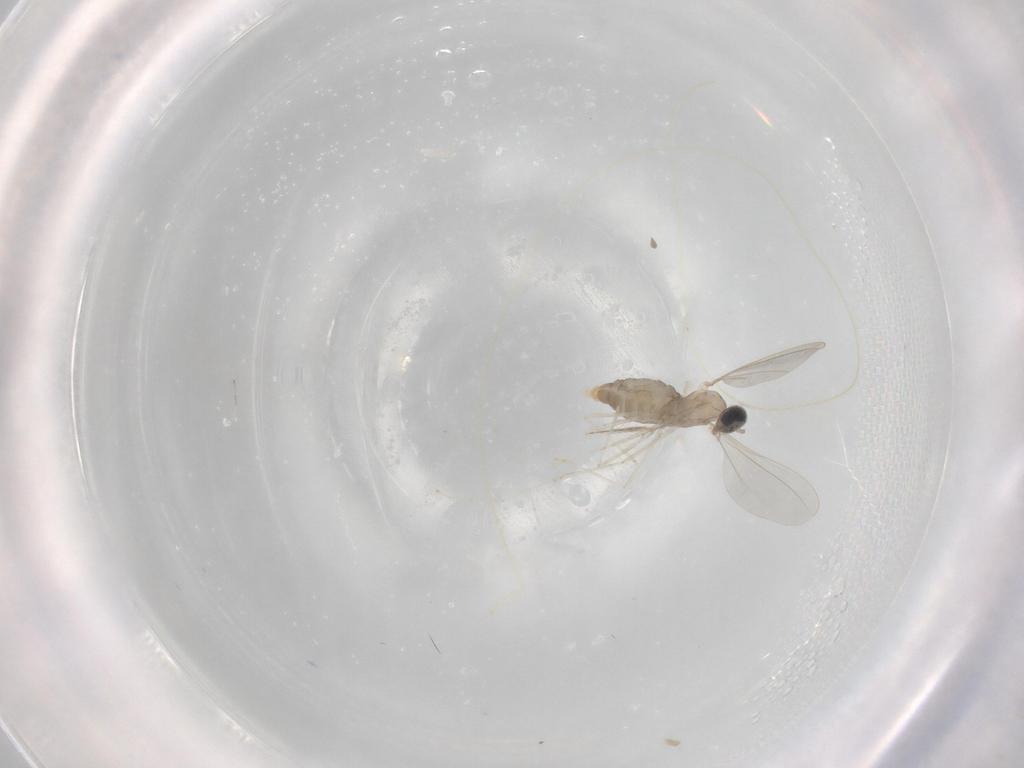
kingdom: Animalia
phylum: Arthropoda
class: Insecta
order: Diptera
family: Cecidomyiidae
